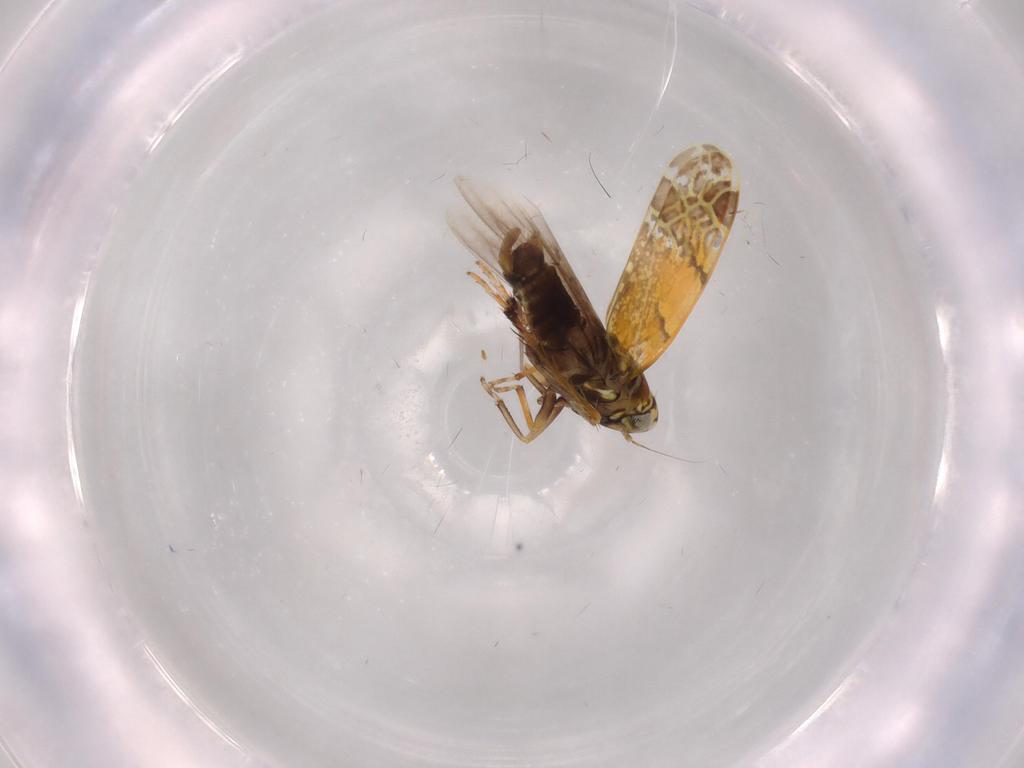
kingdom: Animalia
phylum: Arthropoda
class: Insecta
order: Hemiptera
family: Cicadellidae
